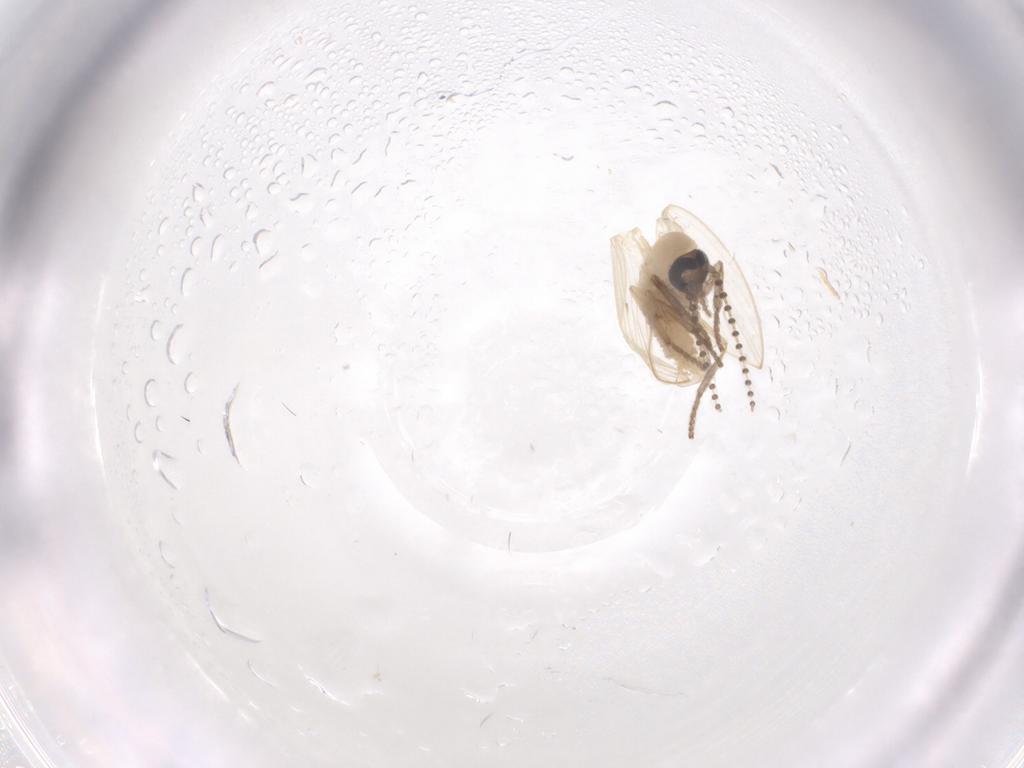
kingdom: Animalia
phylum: Arthropoda
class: Insecta
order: Diptera
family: Psychodidae
